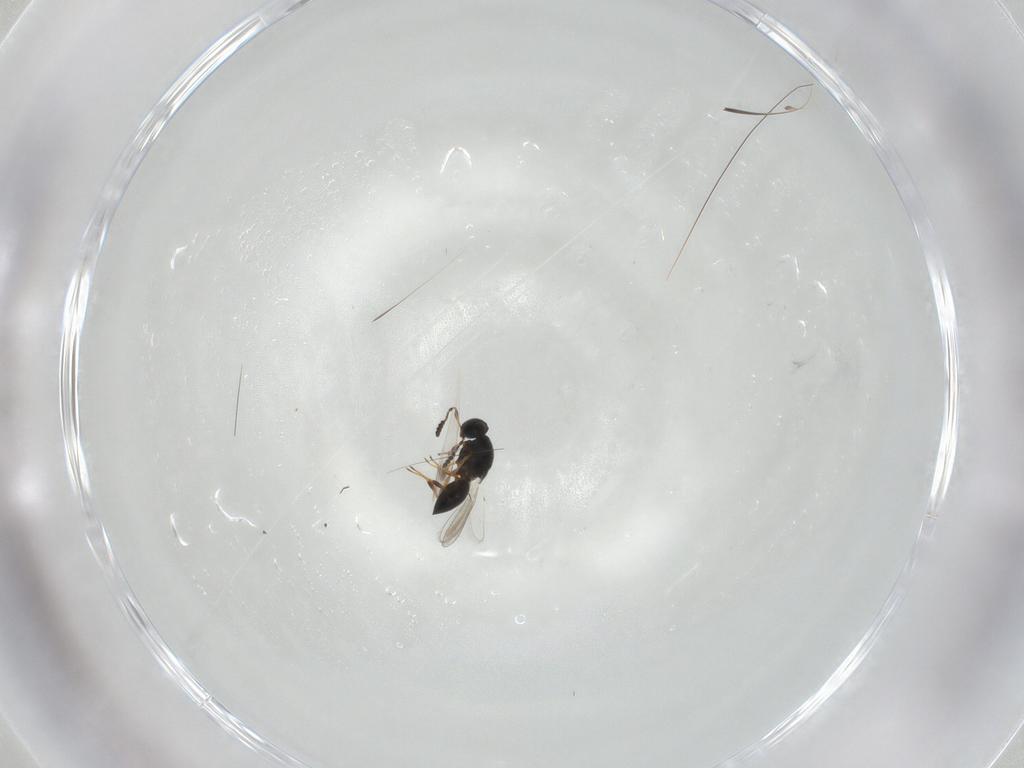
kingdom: Animalia
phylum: Arthropoda
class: Insecta
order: Hymenoptera
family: Platygastridae
